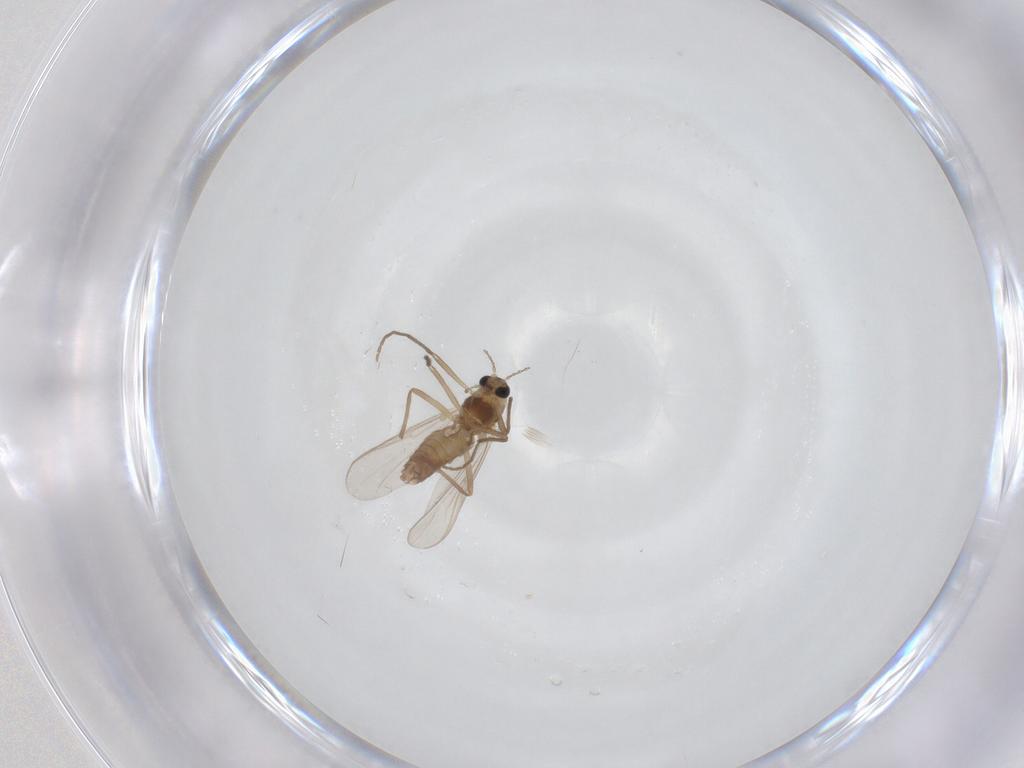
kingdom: Animalia
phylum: Arthropoda
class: Insecta
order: Diptera
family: Chironomidae
